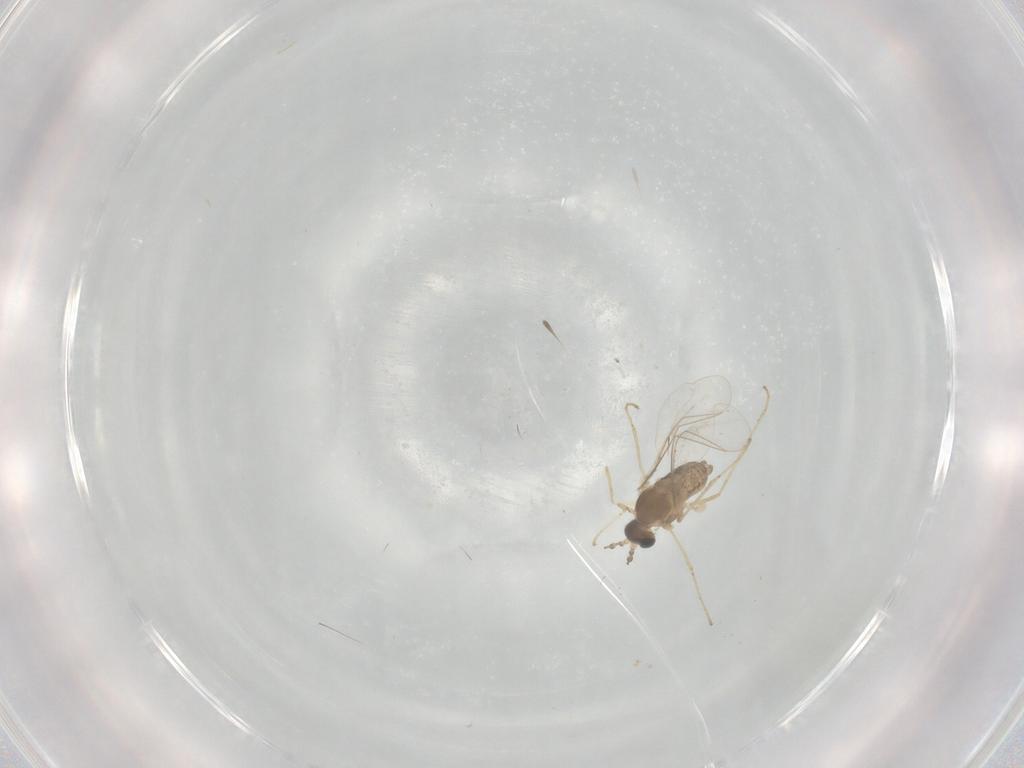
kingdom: Animalia
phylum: Arthropoda
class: Insecta
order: Diptera
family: Cecidomyiidae
